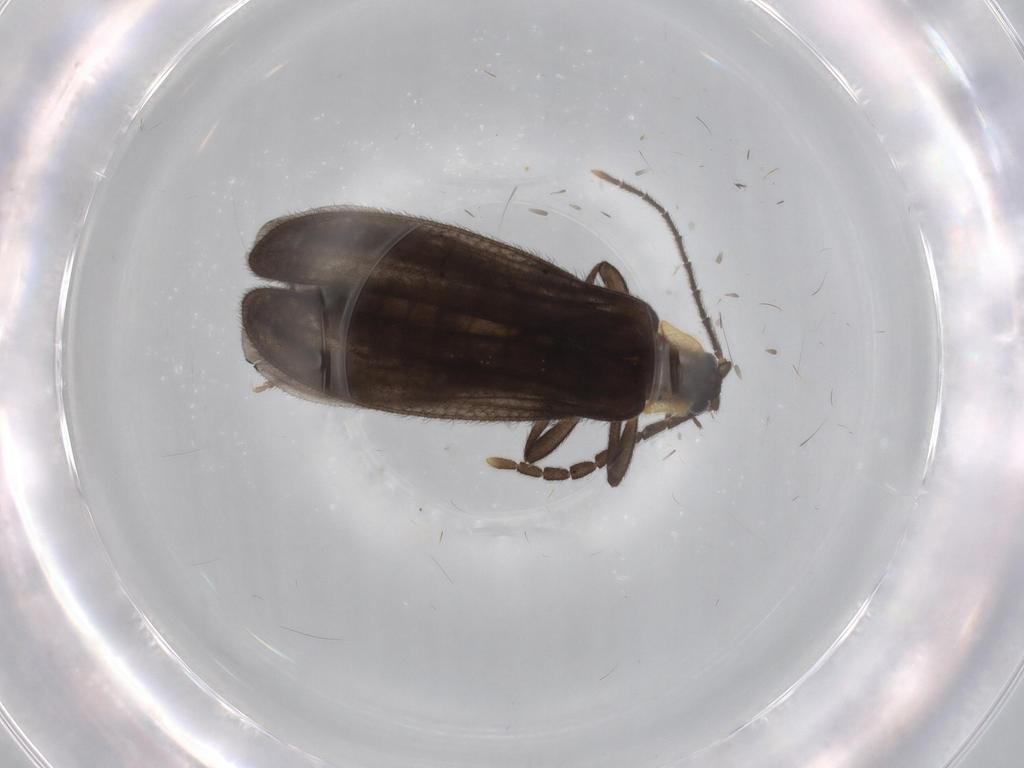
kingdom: Animalia
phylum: Arthropoda
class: Insecta
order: Coleoptera
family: Lycidae
